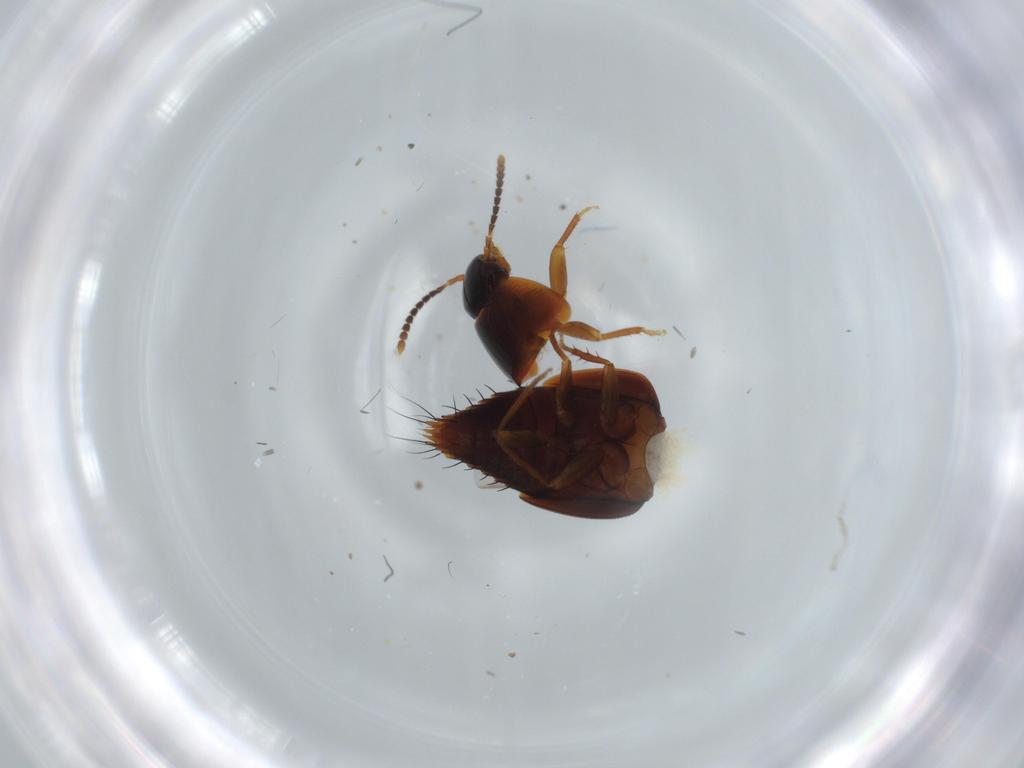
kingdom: Animalia
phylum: Arthropoda
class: Insecta
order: Coleoptera
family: Staphylinidae
